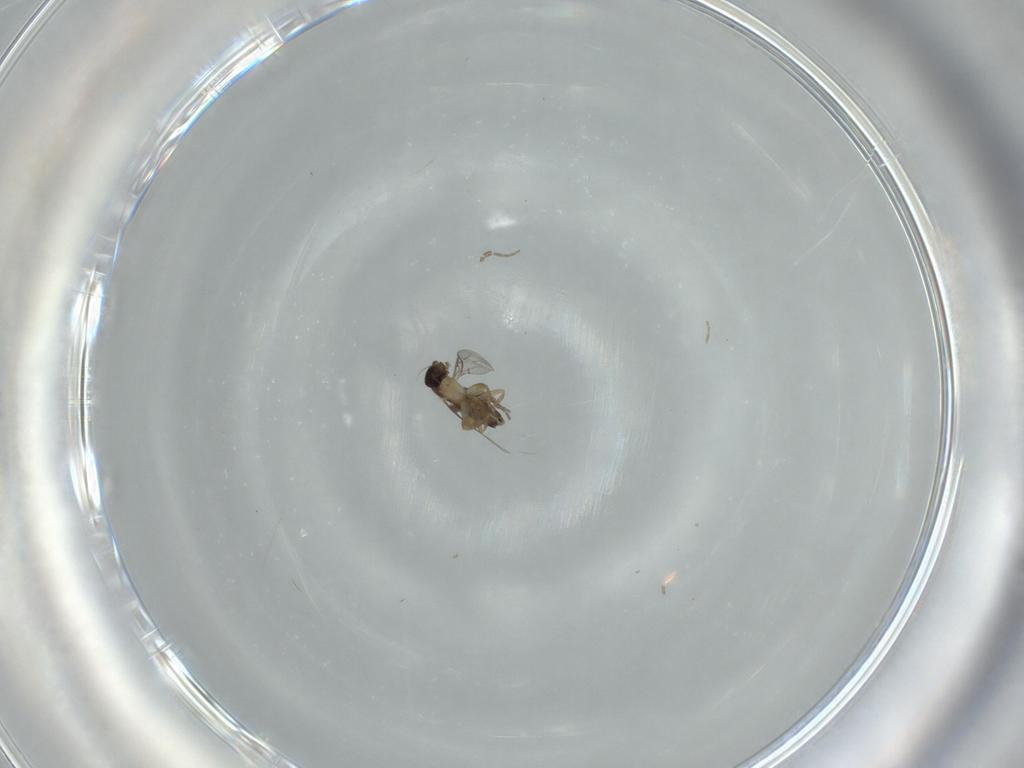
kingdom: Animalia
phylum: Arthropoda
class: Insecta
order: Diptera
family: Phoridae
